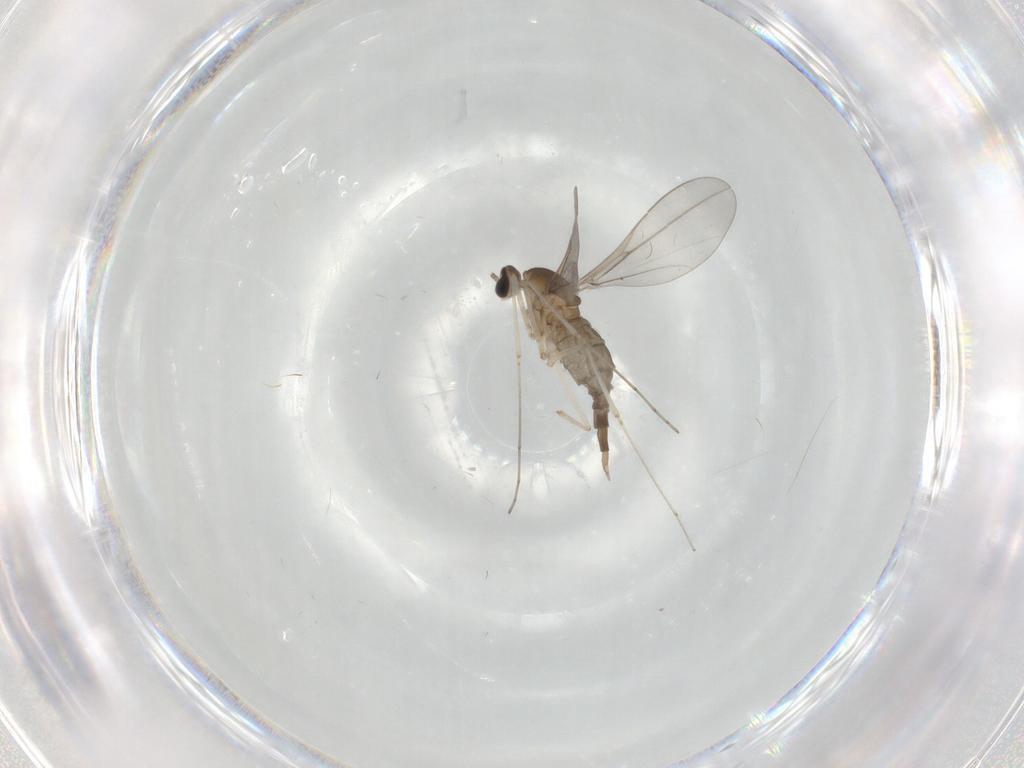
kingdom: Animalia
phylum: Arthropoda
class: Insecta
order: Diptera
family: Cecidomyiidae
